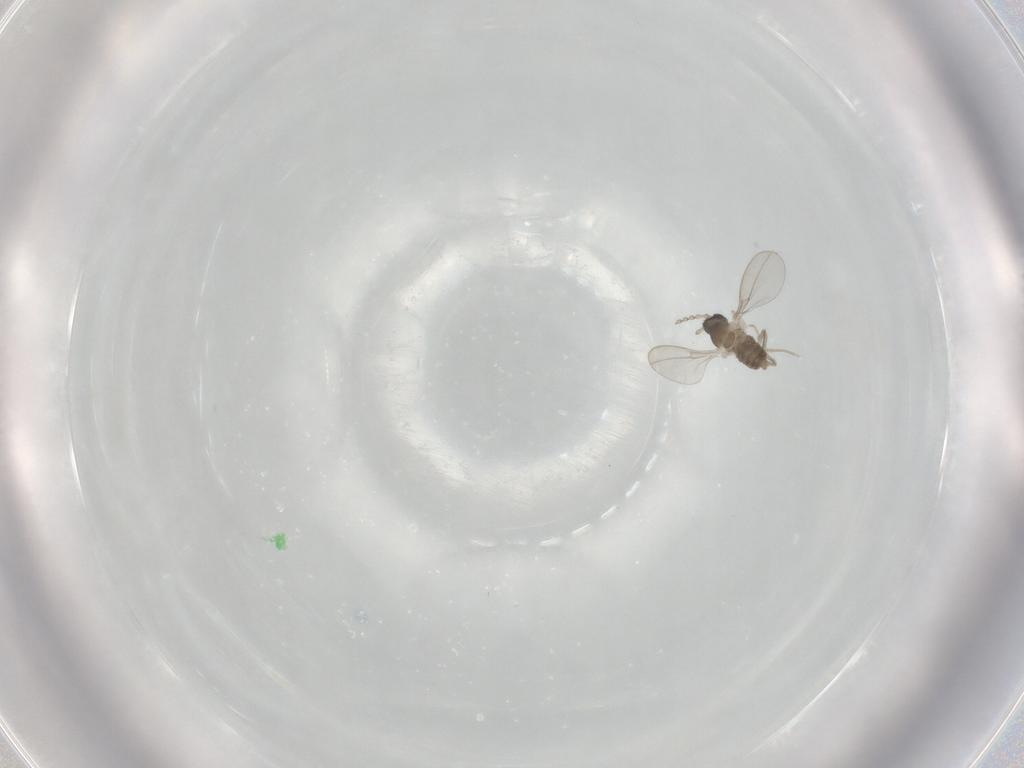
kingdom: Animalia
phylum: Arthropoda
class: Insecta
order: Diptera
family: Cecidomyiidae
